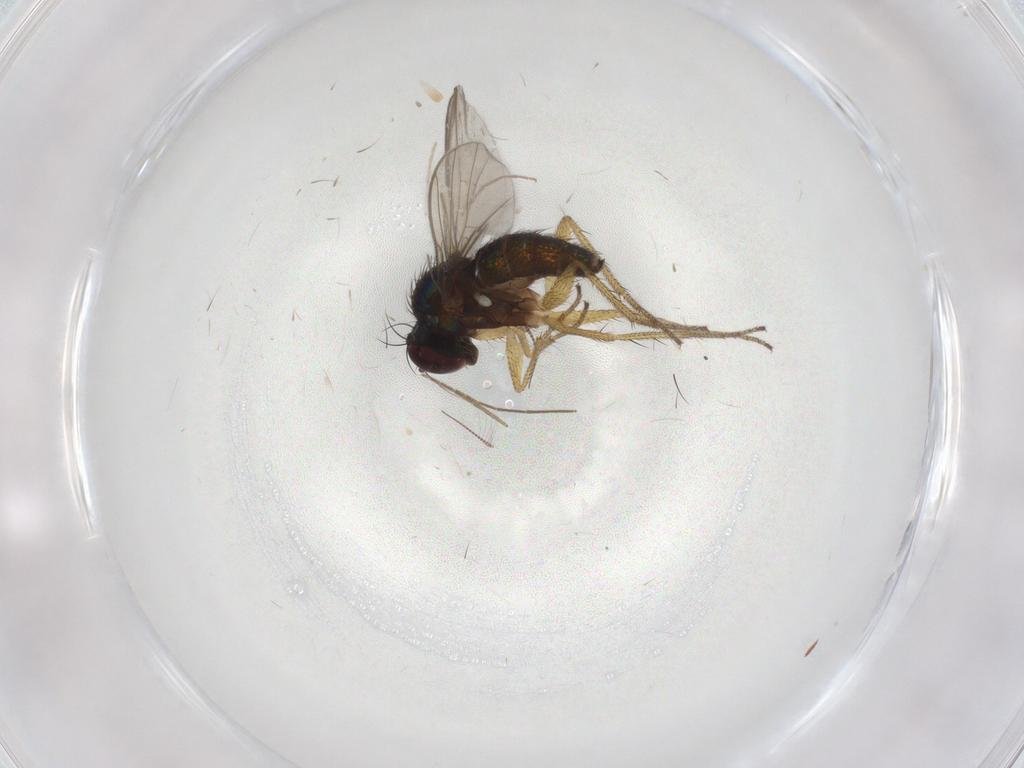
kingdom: Animalia
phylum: Arthropoda
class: Insecta
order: Diptera
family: Dolichopodidae
